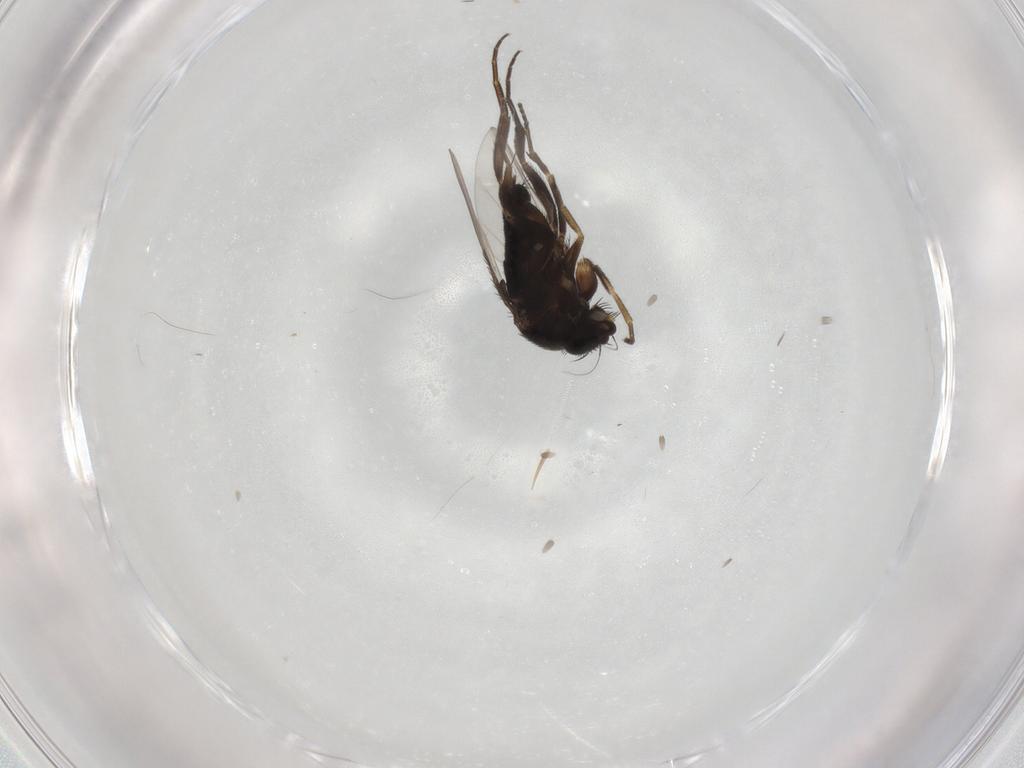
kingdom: Animalia
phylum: Arthropoda
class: Insecta
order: Diptera
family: Phoridae
